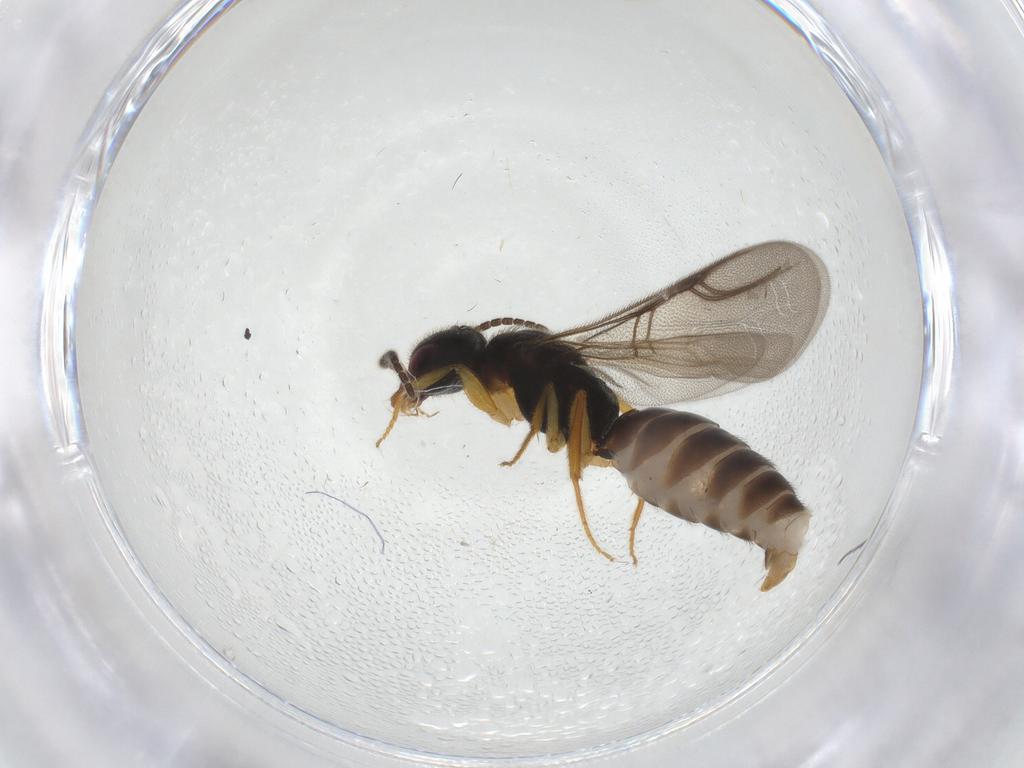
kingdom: Animalia
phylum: Arthropoda
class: Insecta
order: Hymenoptera
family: Bethylidae
